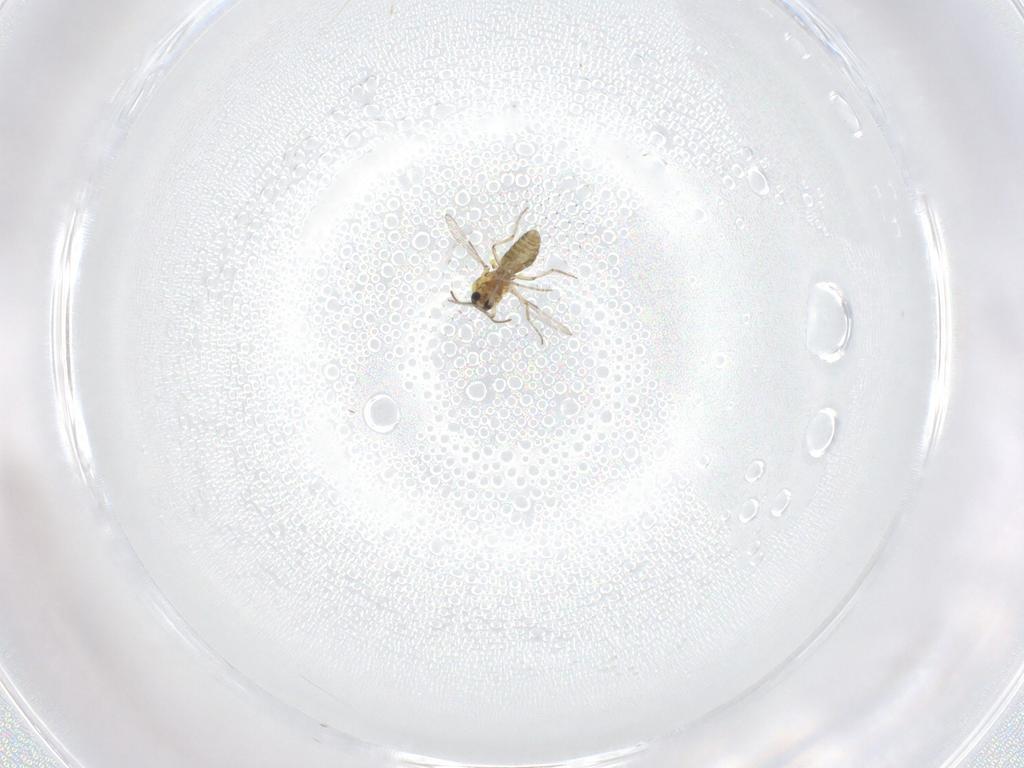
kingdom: Animalia
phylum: Arthropoda
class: Insecta
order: Diptera
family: Ceratopogonidae
